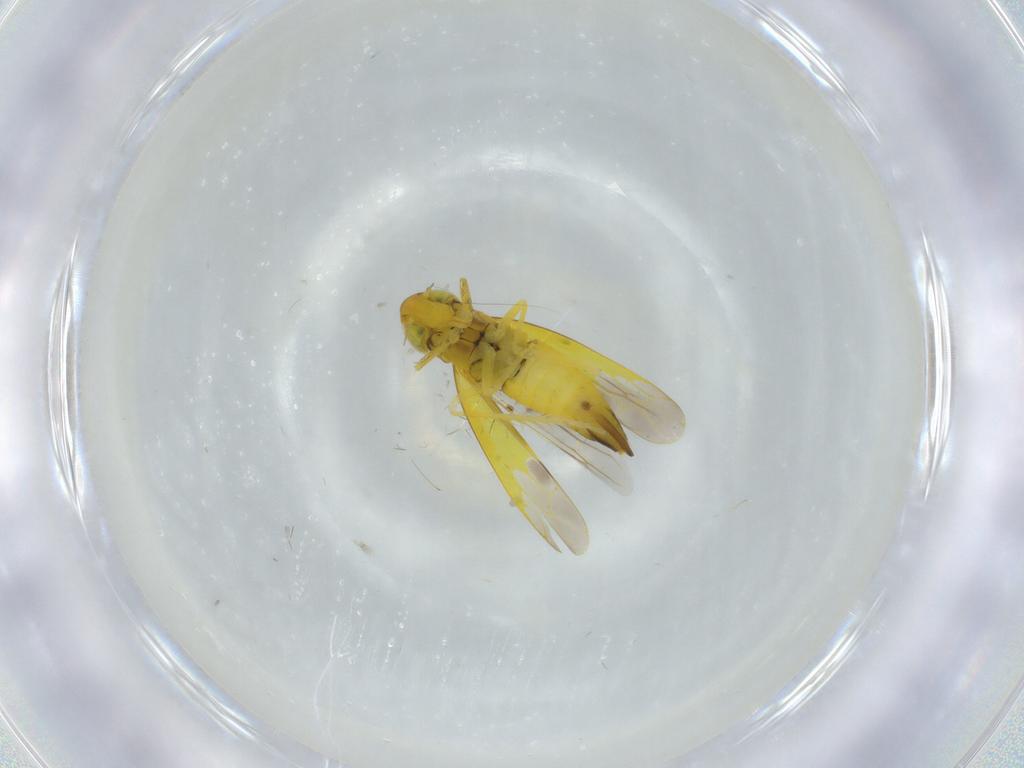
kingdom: Animalia
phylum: Arthropoda
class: Insecta
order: Hemiptera
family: Cicadellidae
